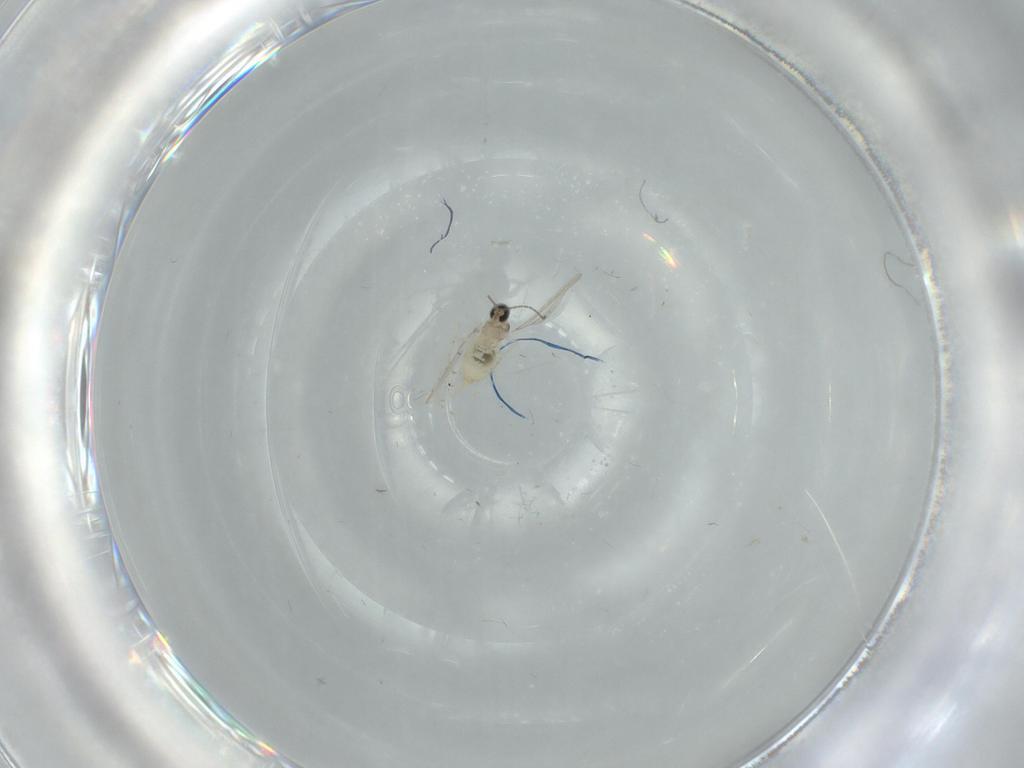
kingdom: Animalia
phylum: Arthropoda
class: Insecta
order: Diptera
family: Sciaridae
